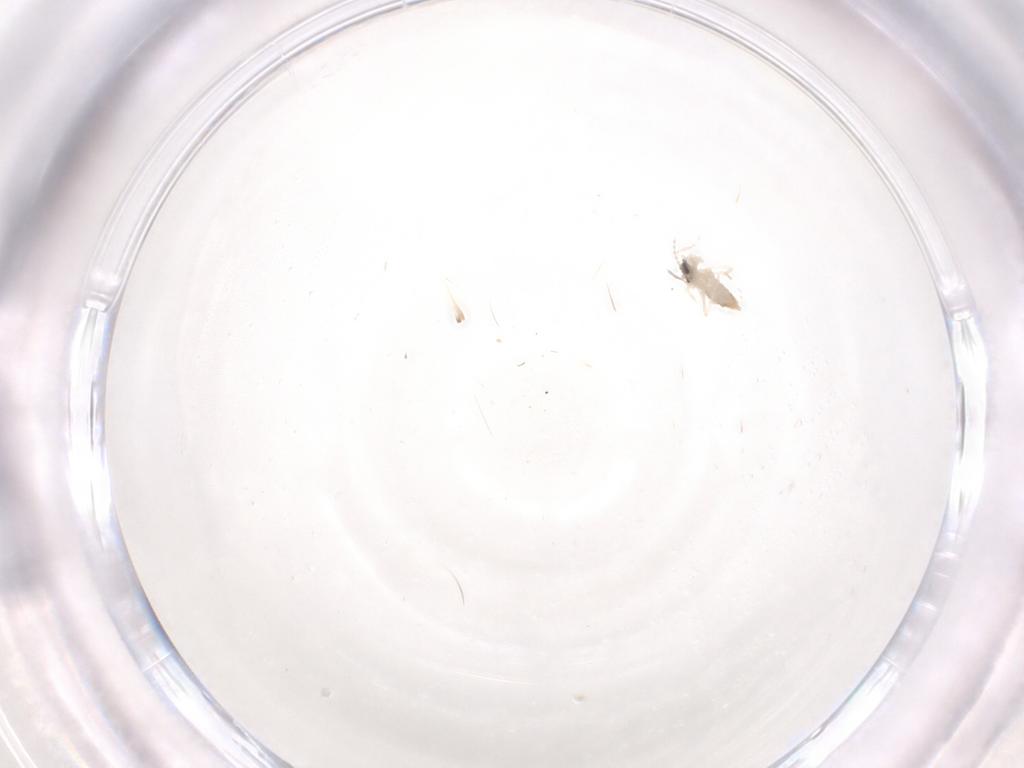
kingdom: Animalia
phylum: Arthropoda
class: Insecta
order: Diptera
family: Cecidomyiidae
